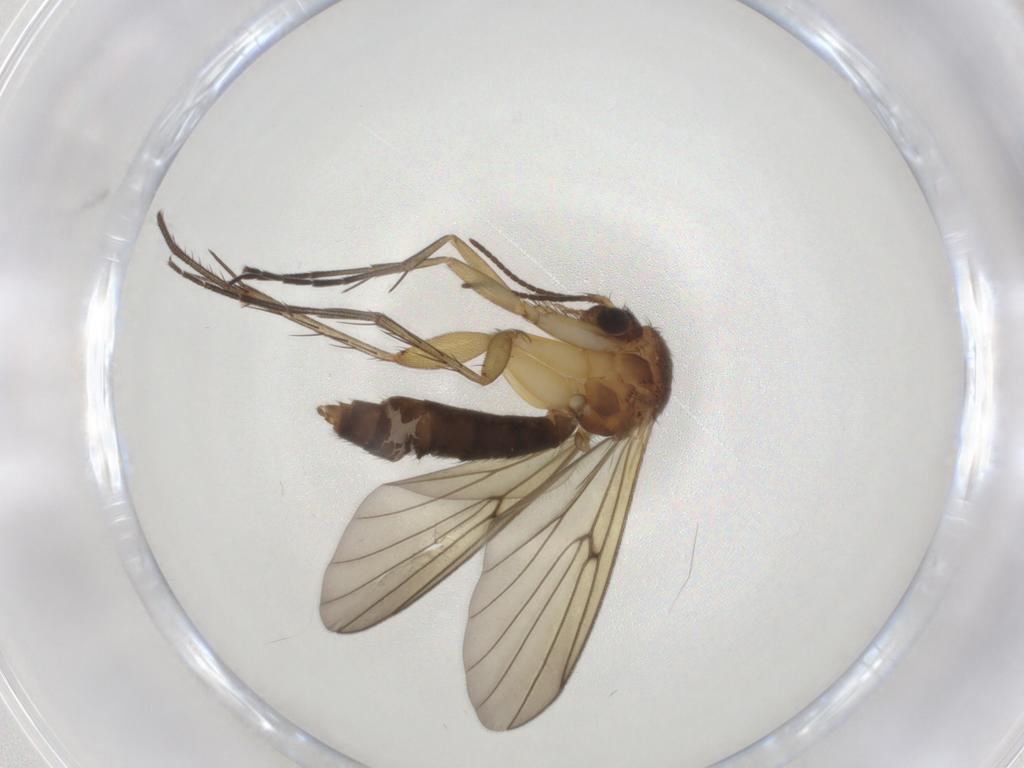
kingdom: Animalia
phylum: Arthropoda
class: Insecta
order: Diptera
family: Mycetophilidae
